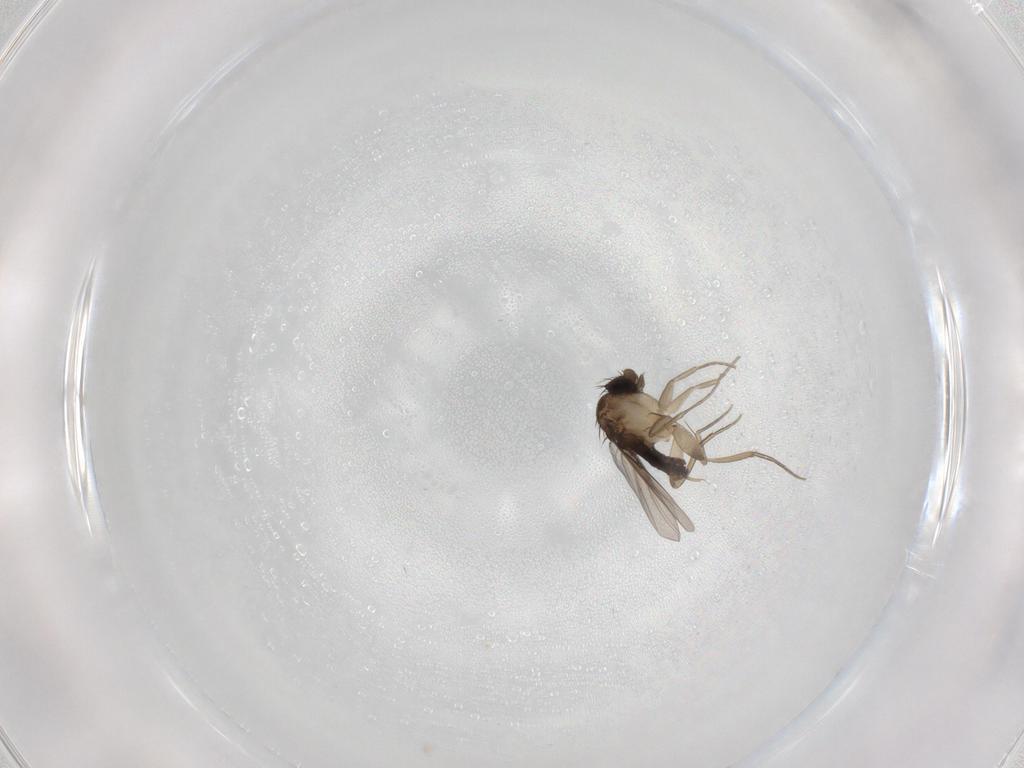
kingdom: Animalia
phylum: Arthropoda
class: Insecta
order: Diptera
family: Phoridae
